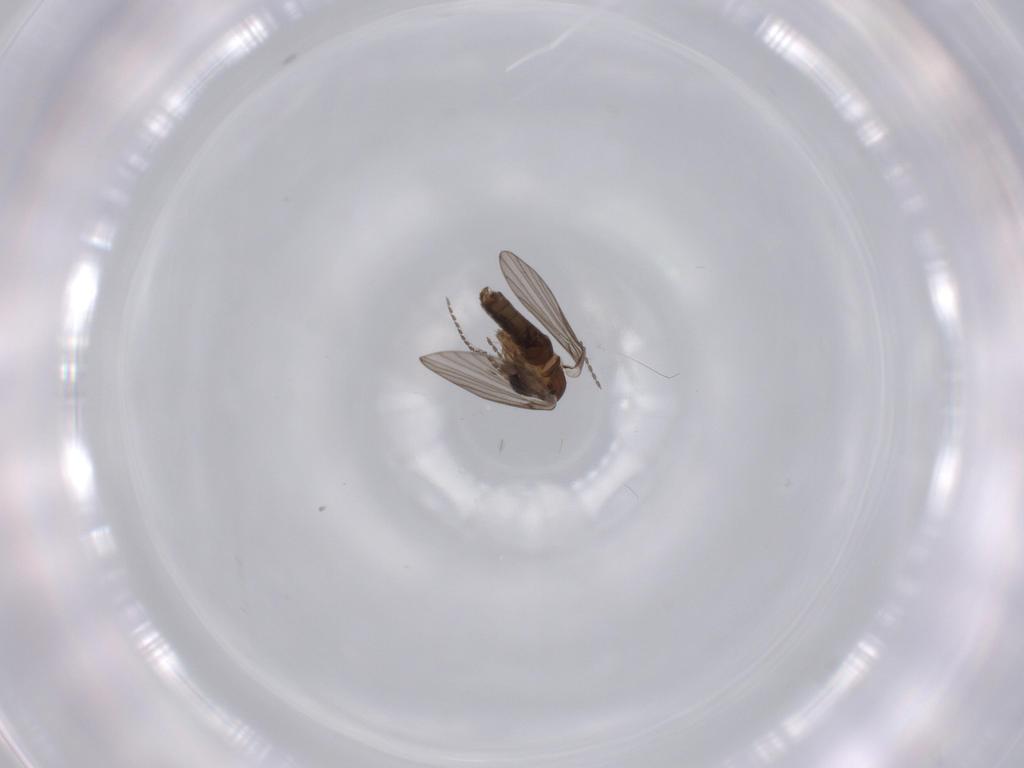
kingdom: Animalia
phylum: Arthropoda
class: Insecta
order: Diptera
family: Psychodidae
